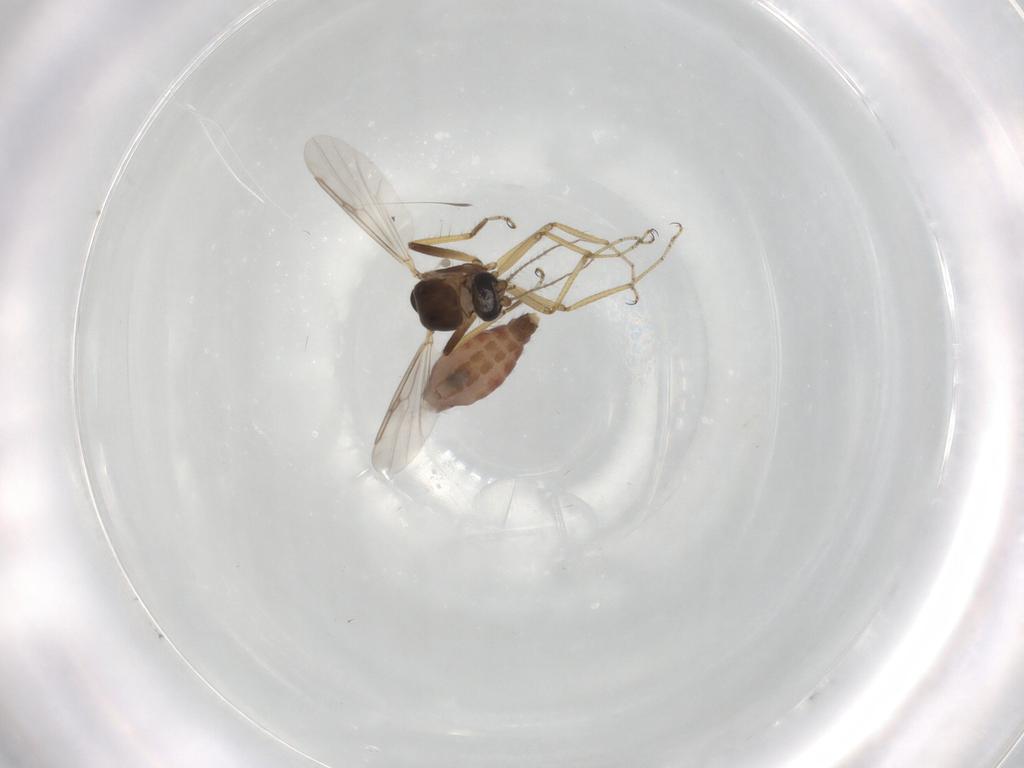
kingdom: Animalia
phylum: Arthropoda
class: Insecta
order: Diptera
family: Ceratopogonidae
